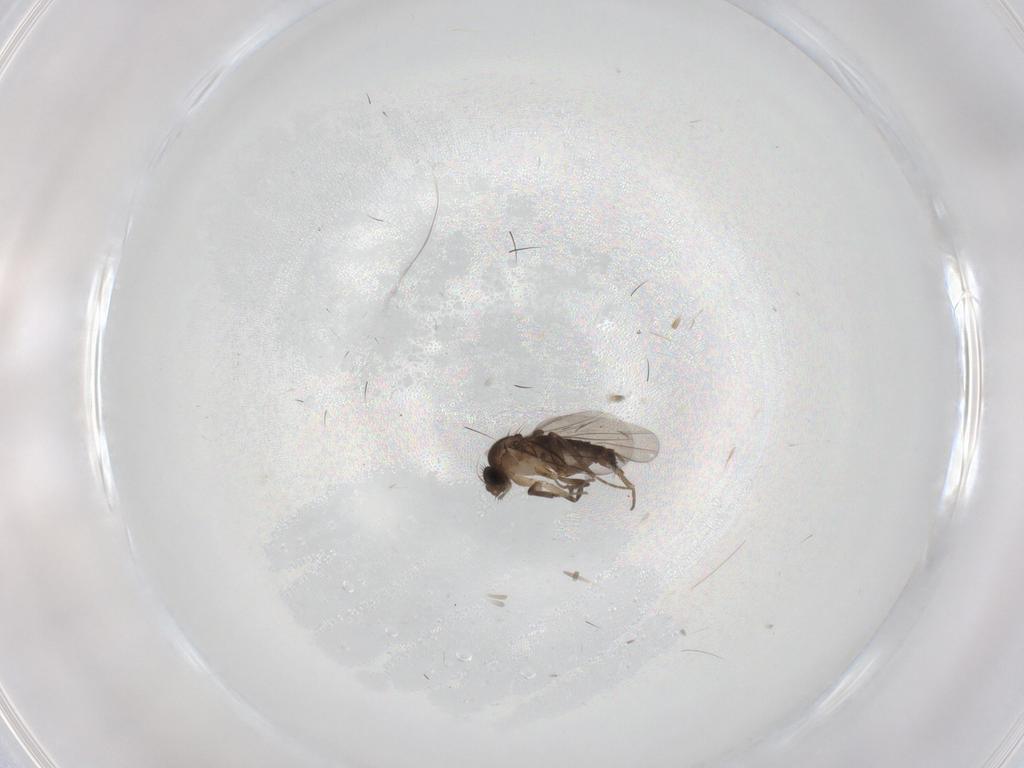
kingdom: Animalia
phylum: Arthropoda
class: Insecta
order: Diptera
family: Phoridae
